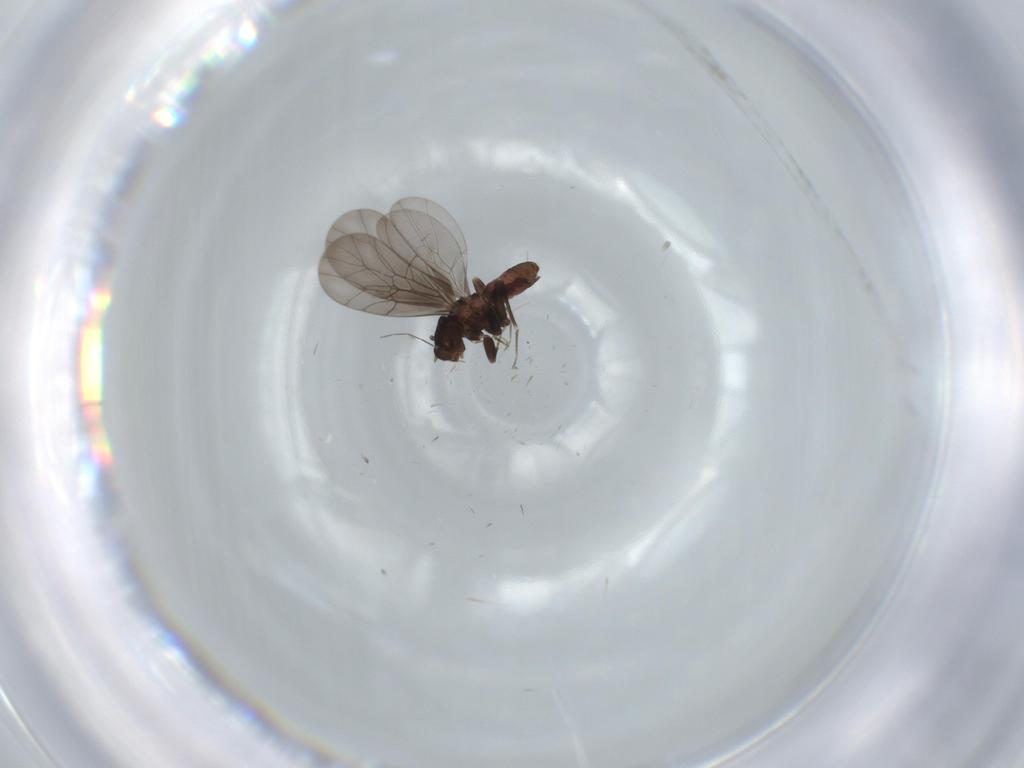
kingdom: Animalia
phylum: Arthropoda
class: Insecta
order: Psocodea
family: Lepidopsocidae
